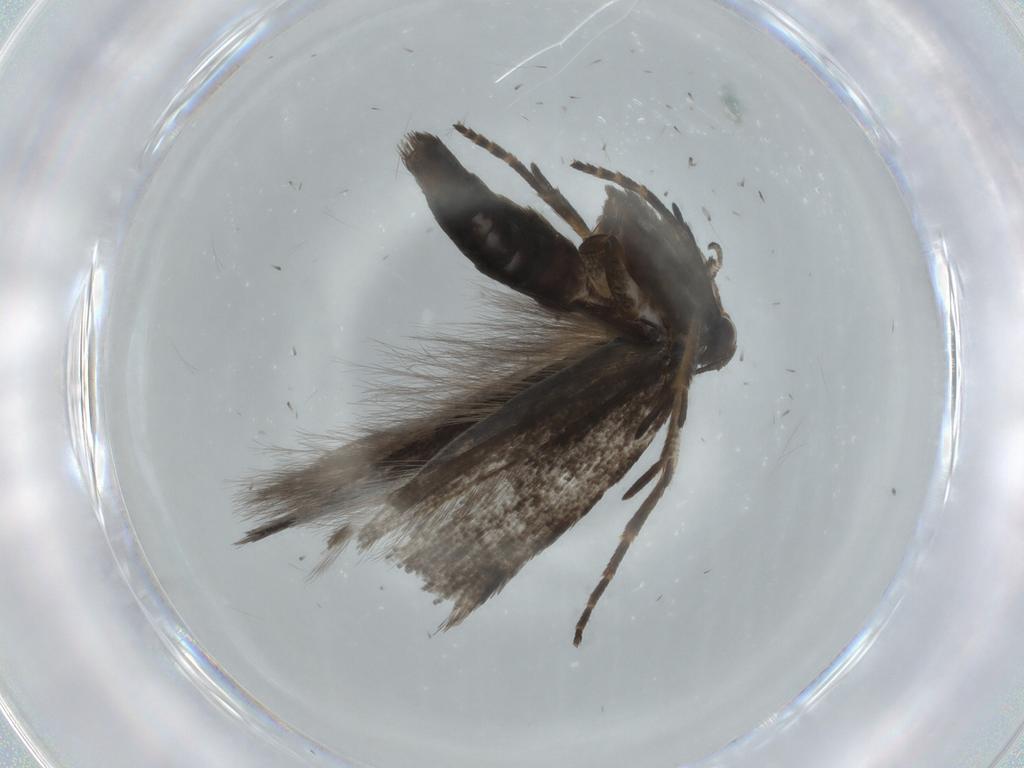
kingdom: Animalia
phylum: Arthropoda
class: Insecta
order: Lepidoptera
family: Gelechiidae
